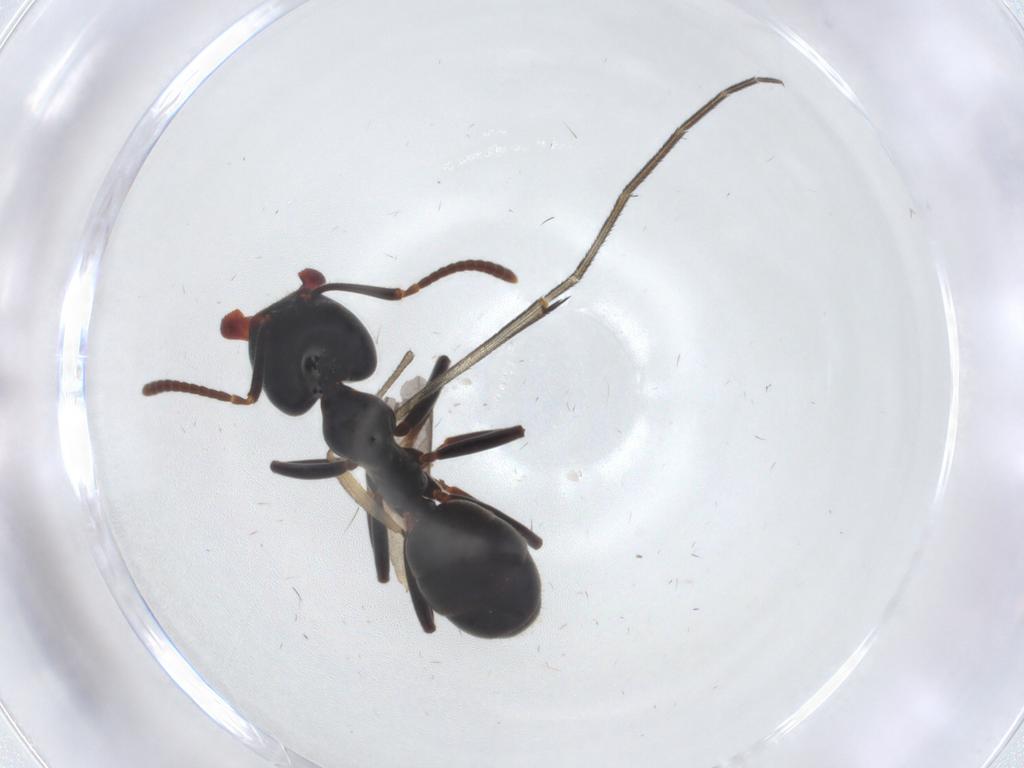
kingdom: Animalia
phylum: Arthropoda
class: Insecta
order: Hymenoptera
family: Formicidae
